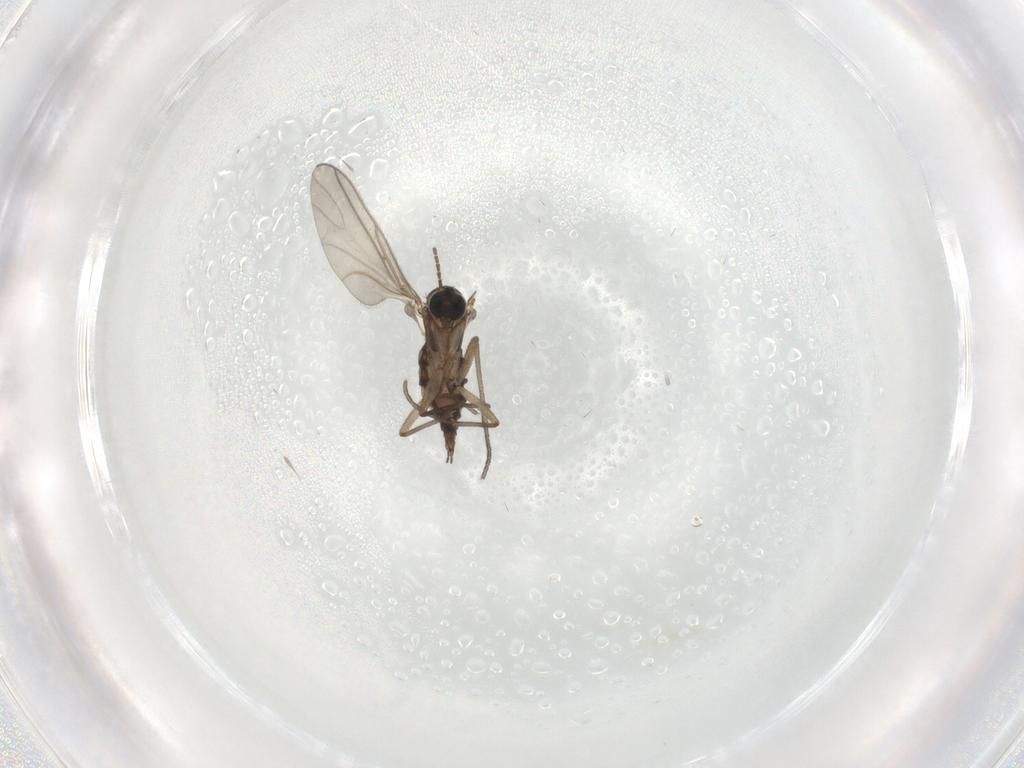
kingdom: Animalia
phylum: Arthropoda
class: Insecta
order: Diptera
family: Sciaridae
